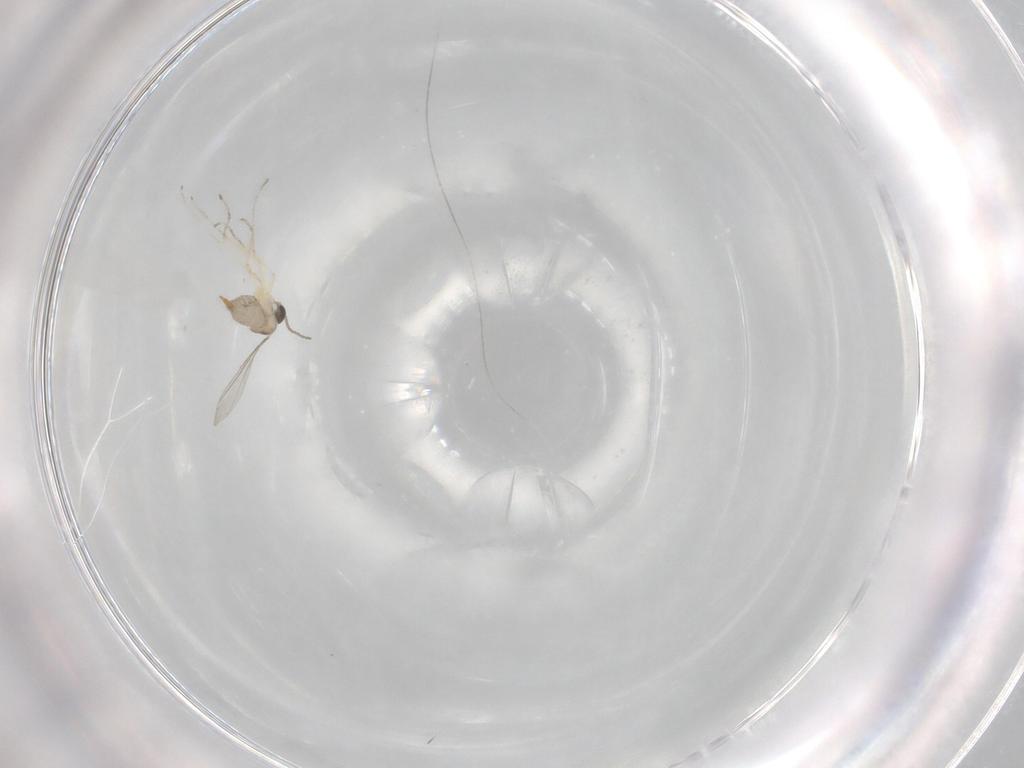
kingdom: Animalia
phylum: Arthropoda
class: Insecta
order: Diptera
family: Cecidomyiidae
